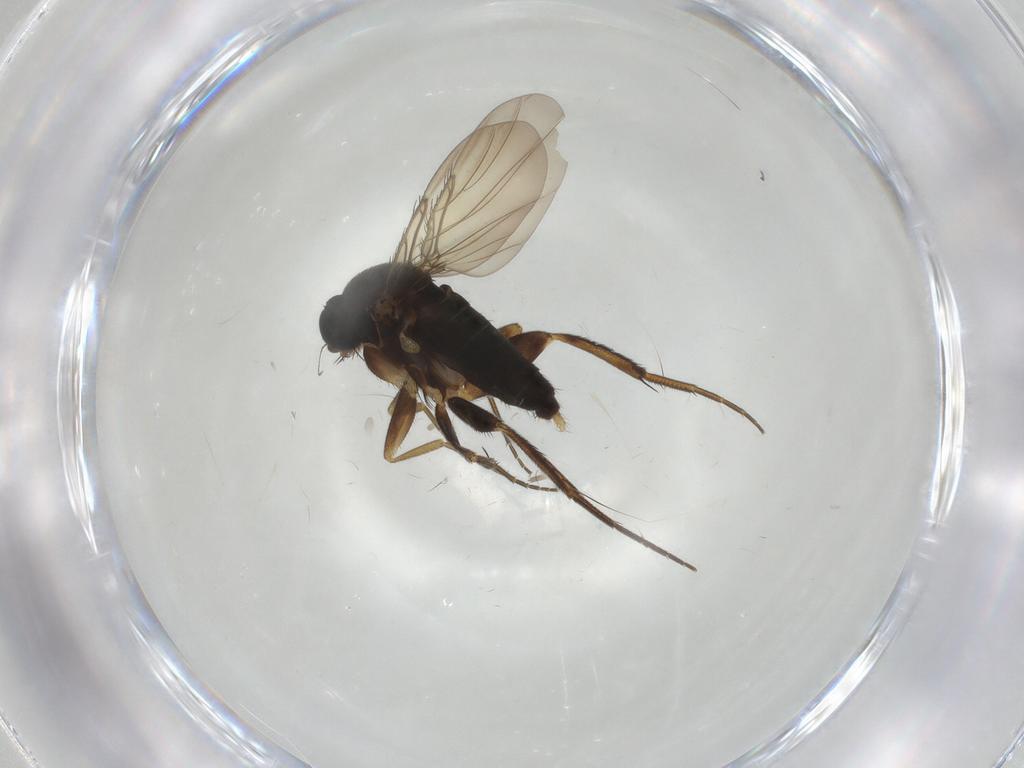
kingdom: Animalia
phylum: Arthropoda
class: Insecta
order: Diptera
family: Phoridae
